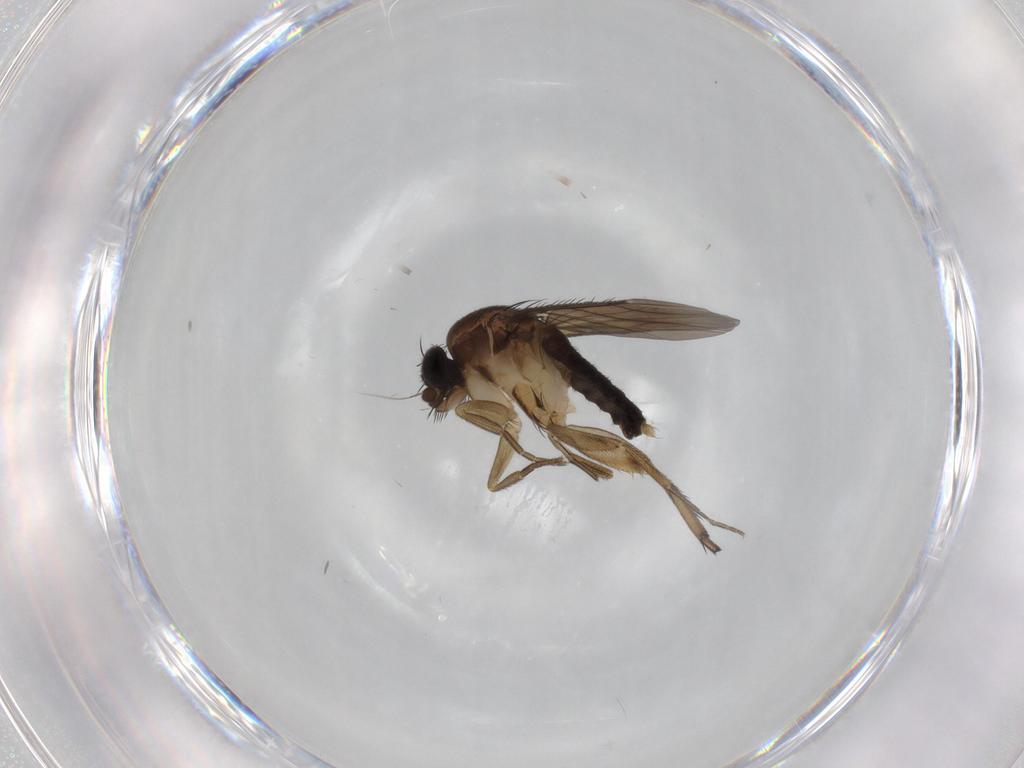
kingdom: Animalia
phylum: Arthropoda
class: Insecta
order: Diptera
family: Phoridae
